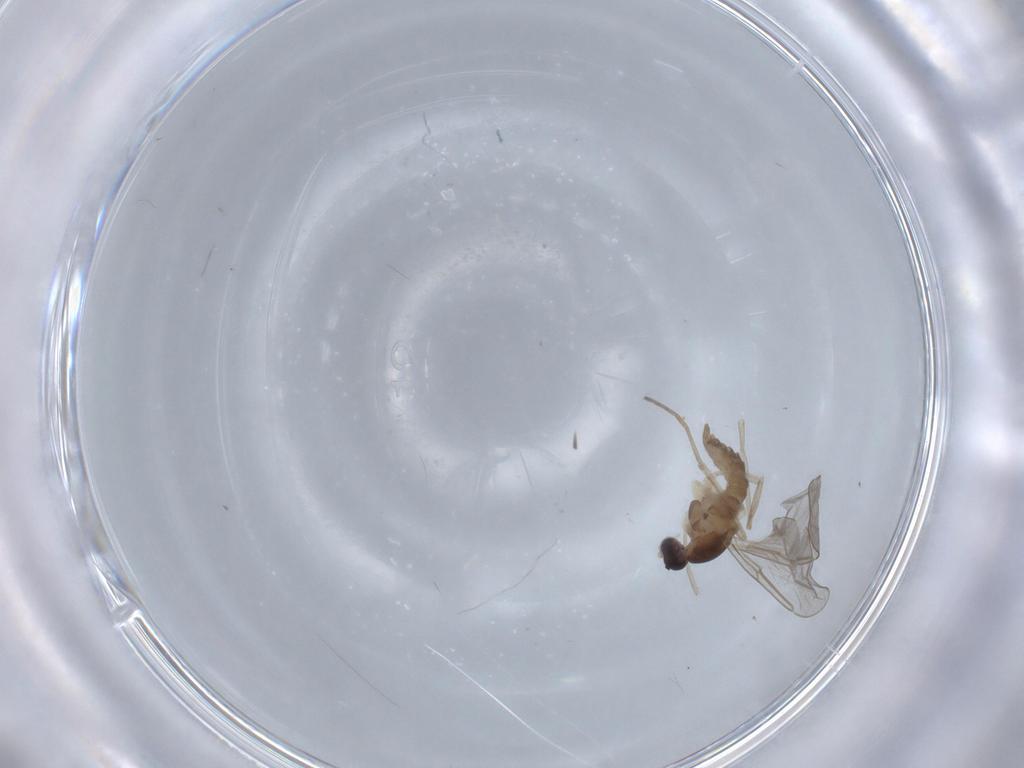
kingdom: Animalia
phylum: Arthropoda
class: Insecta
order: Diptera
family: Cecidomyiidae
